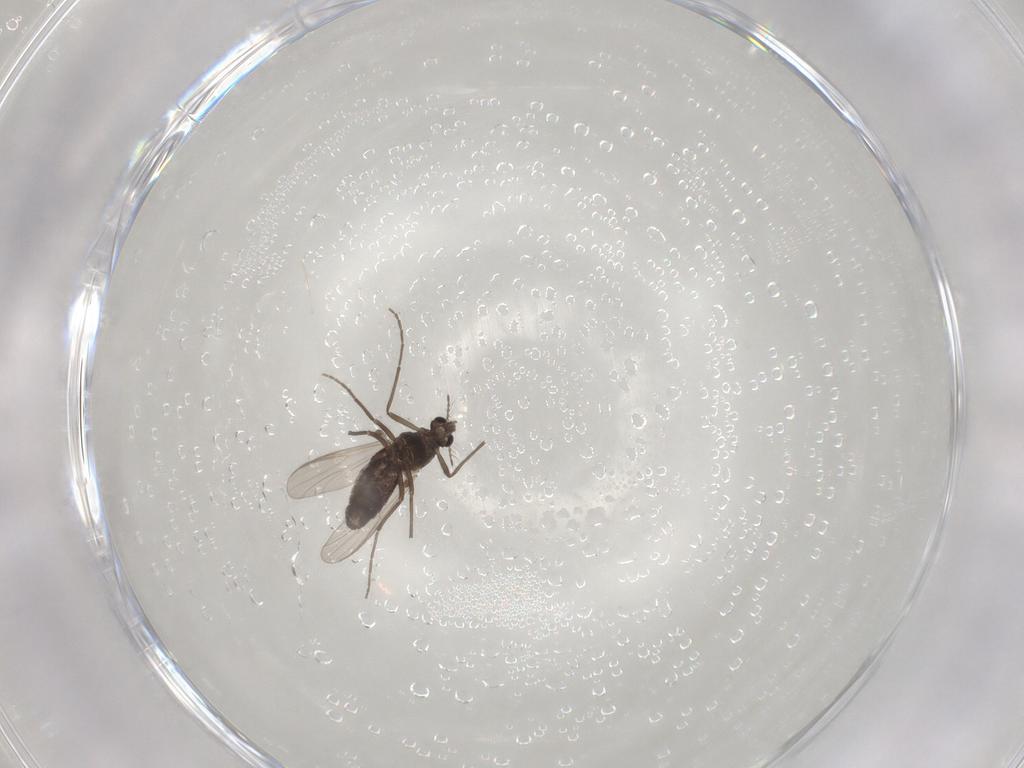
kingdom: Animalia
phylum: Arthropoda
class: Insecta
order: Diptera
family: Chironomidae
